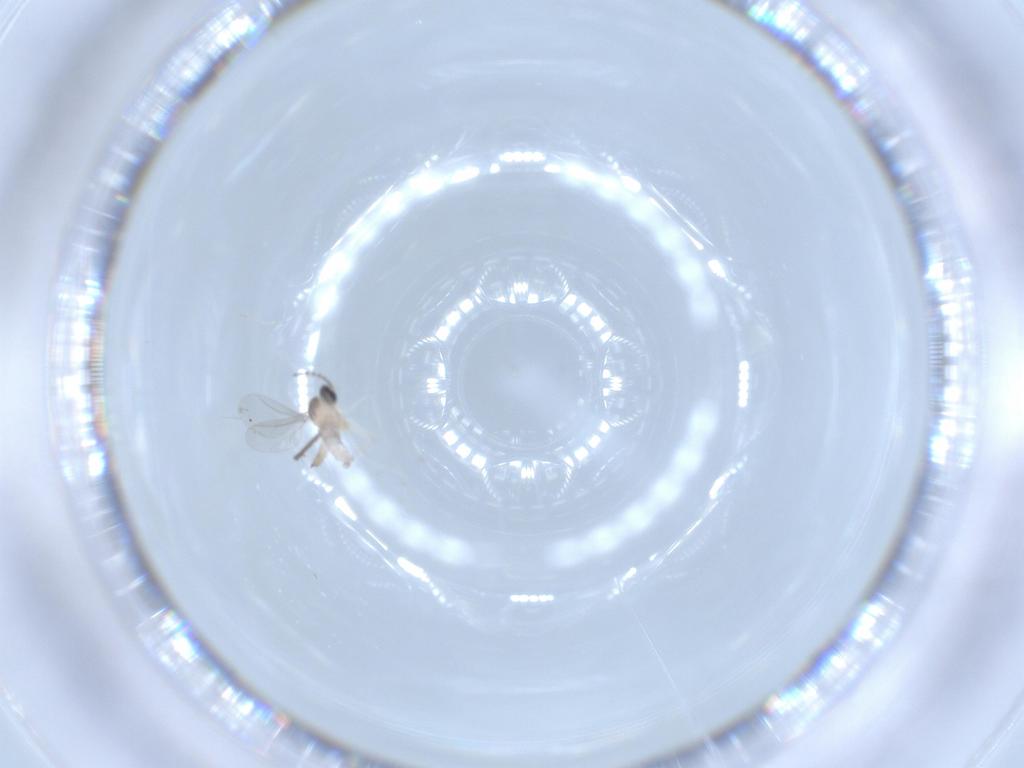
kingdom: Animalia
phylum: Arthropoda
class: Insecta
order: Diptera
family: Cecidomyiidae
